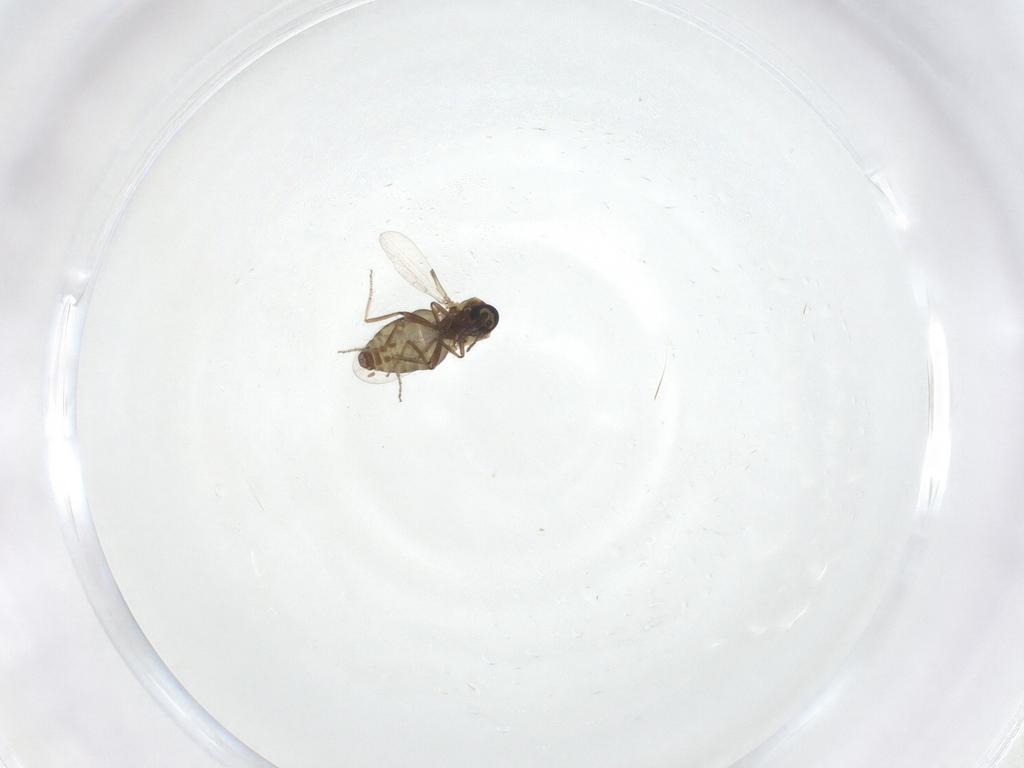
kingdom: Animalia
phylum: Arthropoda
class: Insecta
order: Diptera
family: Ceratopogonidae
